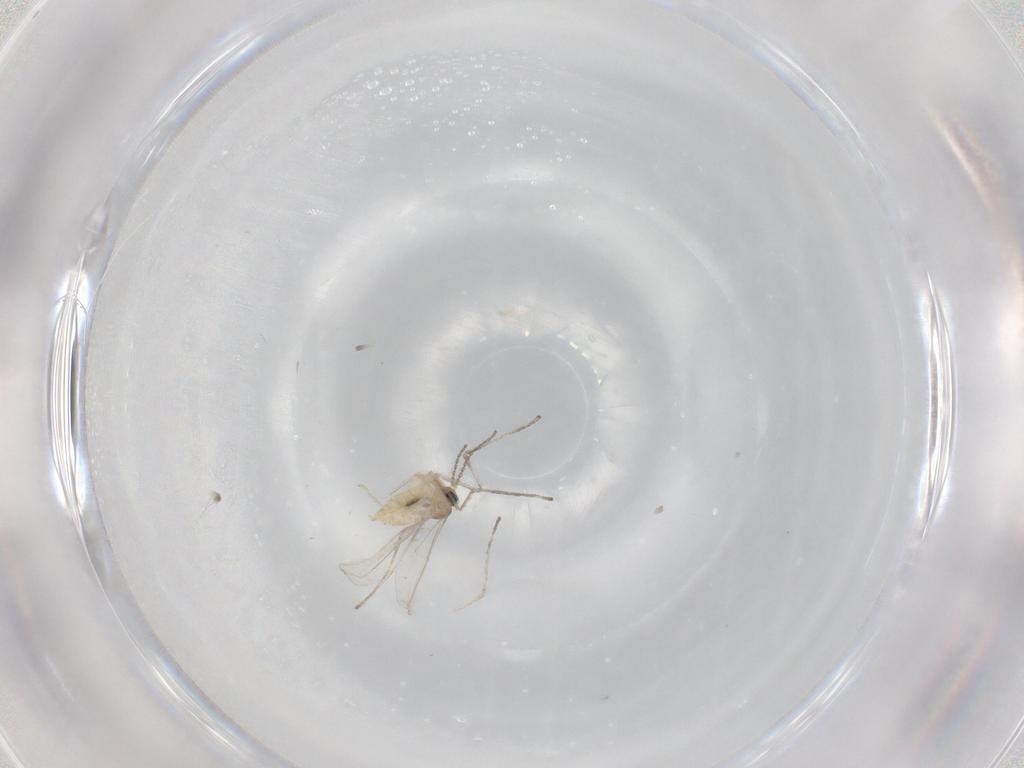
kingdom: Animalia
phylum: Arthropoda
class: Insecta
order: Diptera
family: Cecidomyiidae
